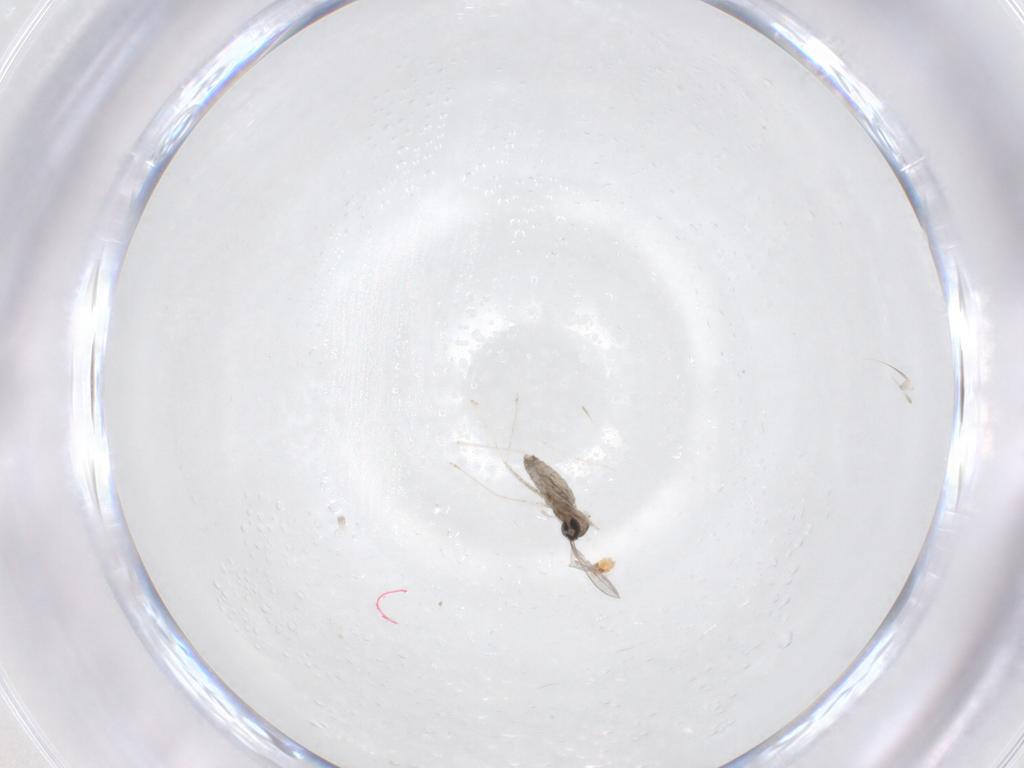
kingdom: Animalia
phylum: Arthropoda
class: Insecta
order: Diptera
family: Cecidomyiidae
